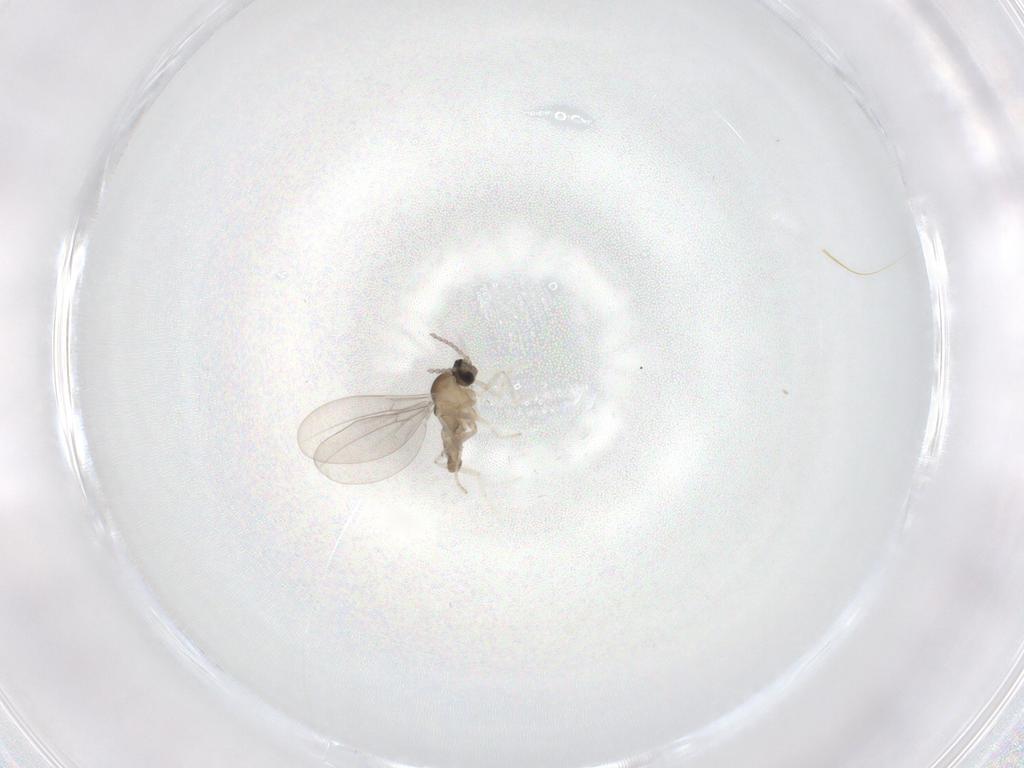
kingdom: Animalia
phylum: Arthropoda
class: Insecta
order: Diptera
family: Cecidomyiidae
